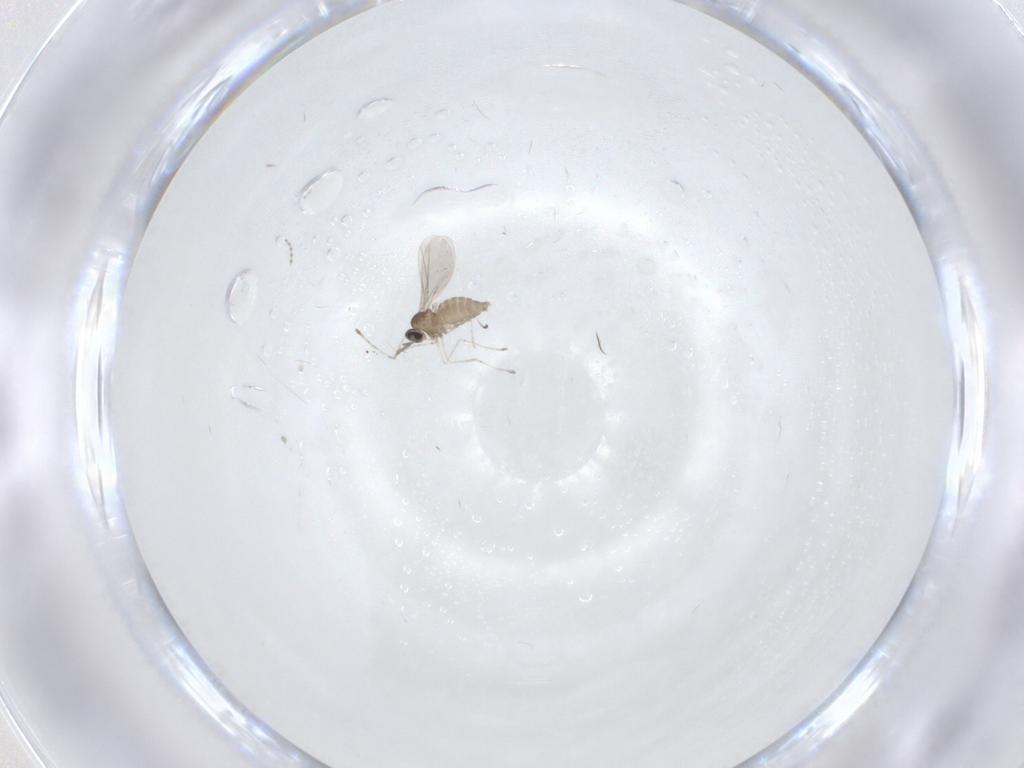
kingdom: Animalia
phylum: Arthropoda
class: Insecta
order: Diptera
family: Cecidomyiidae
